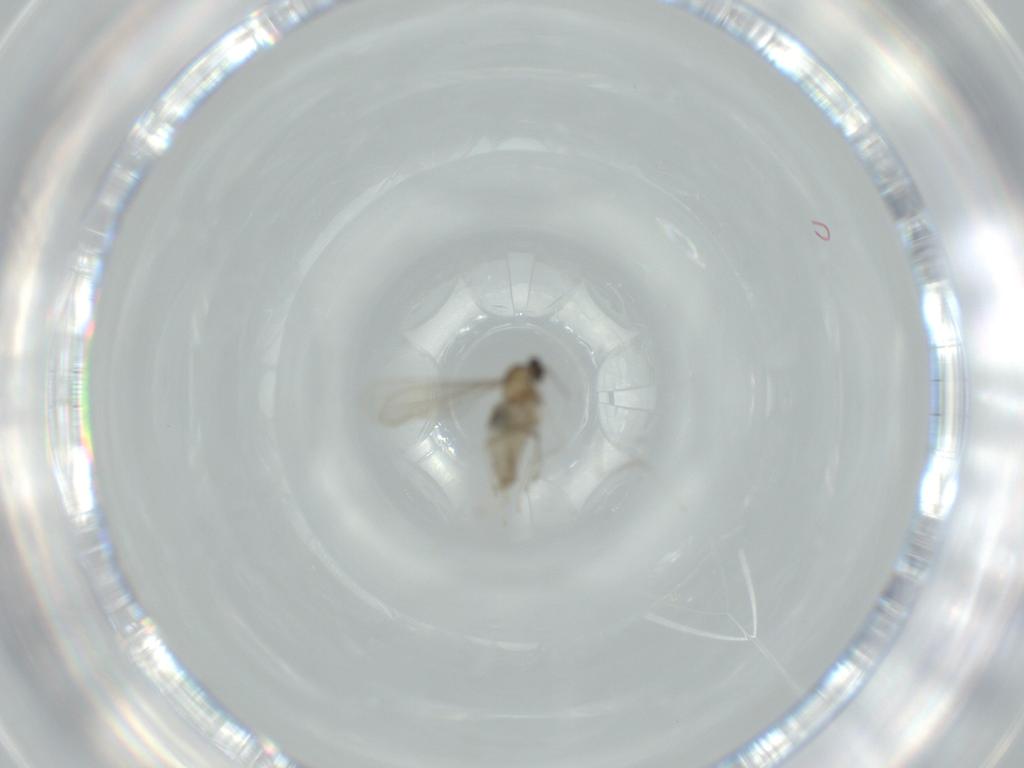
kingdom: Animalia
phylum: Arthropoda
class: Insecta
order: Diptera
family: Cecidomyiidae
